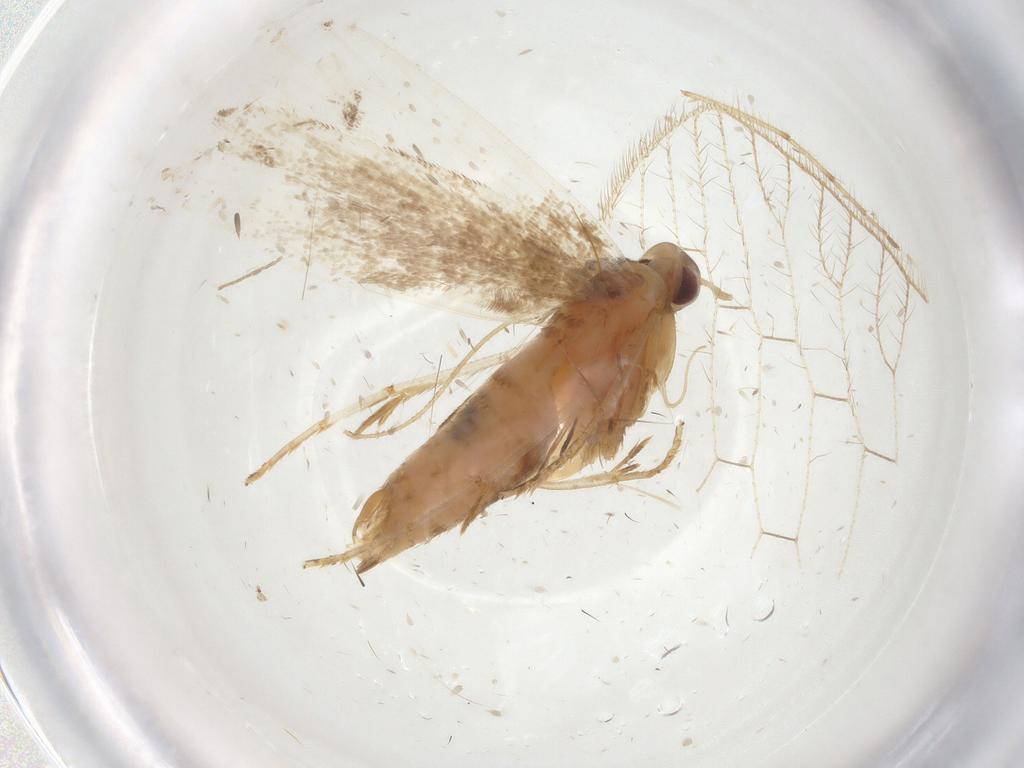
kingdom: Animalia
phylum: Arthropoda
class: Insecta
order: Lepidoptera
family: Gelechiidae
